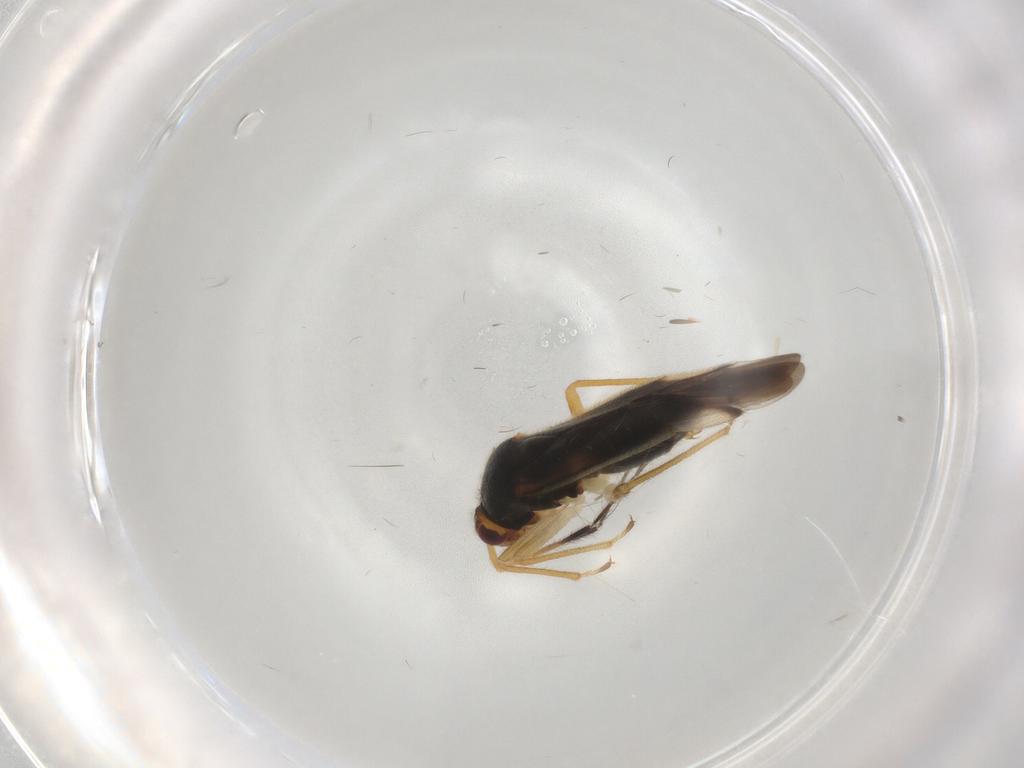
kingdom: Animalia
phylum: Arthropoda
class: Insecta
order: Hemiptera
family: Miridae
